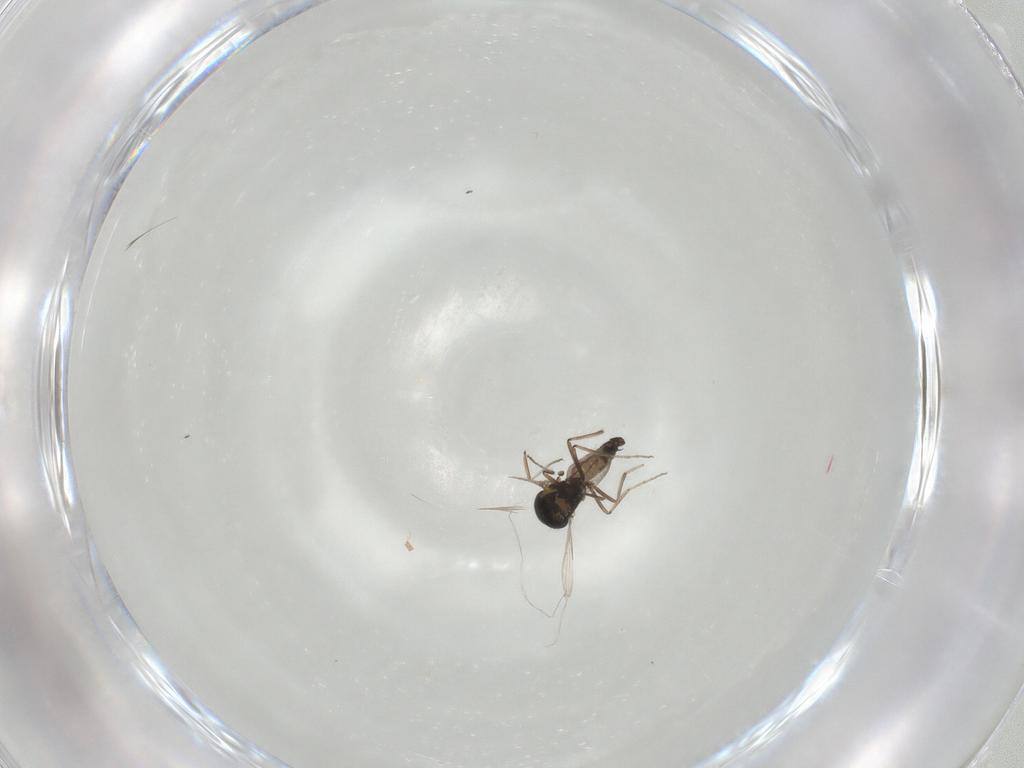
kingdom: Animalia
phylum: Arthropoda
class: Insecta
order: Diptera
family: Ceratopogonidae
